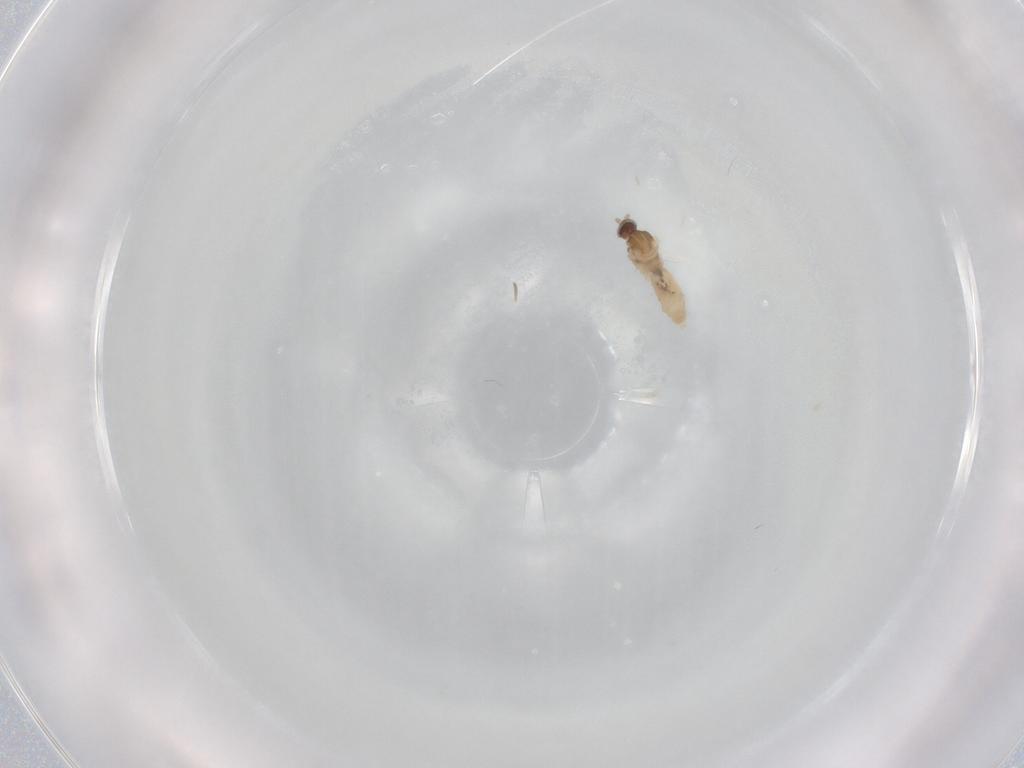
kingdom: Animalia
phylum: Arthropoda
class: Insecta
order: Diptera
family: Cecidomyiidae
